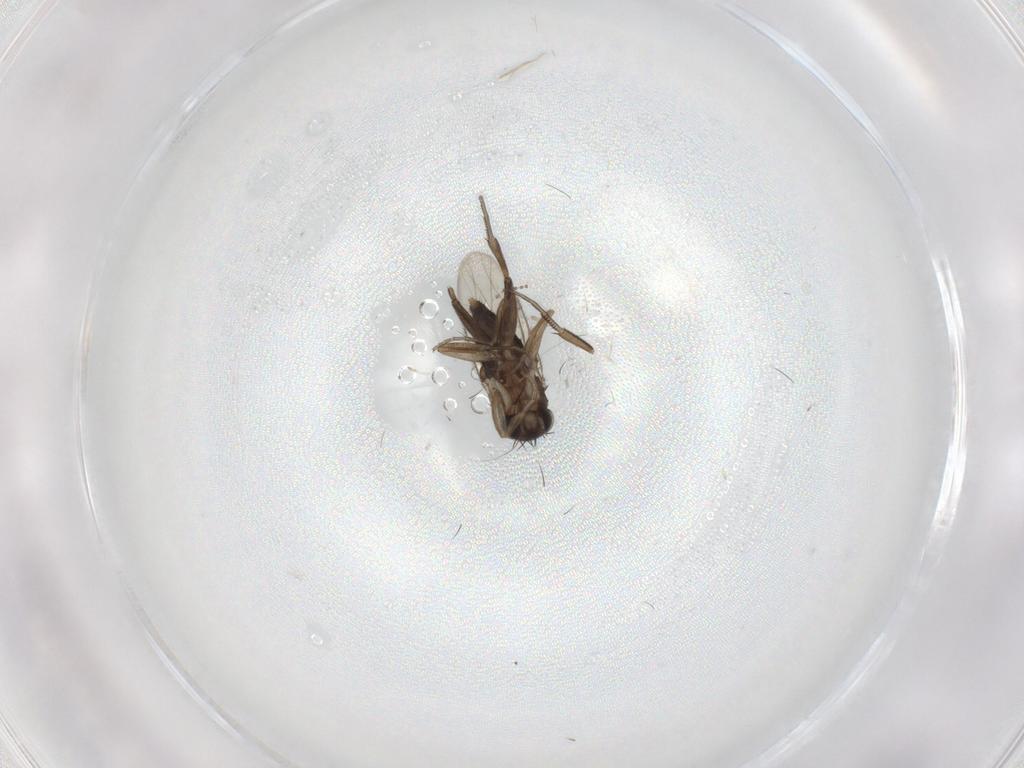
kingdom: Animalia
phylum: Arthropoda
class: Insecta
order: Diptera
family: Phoridae
